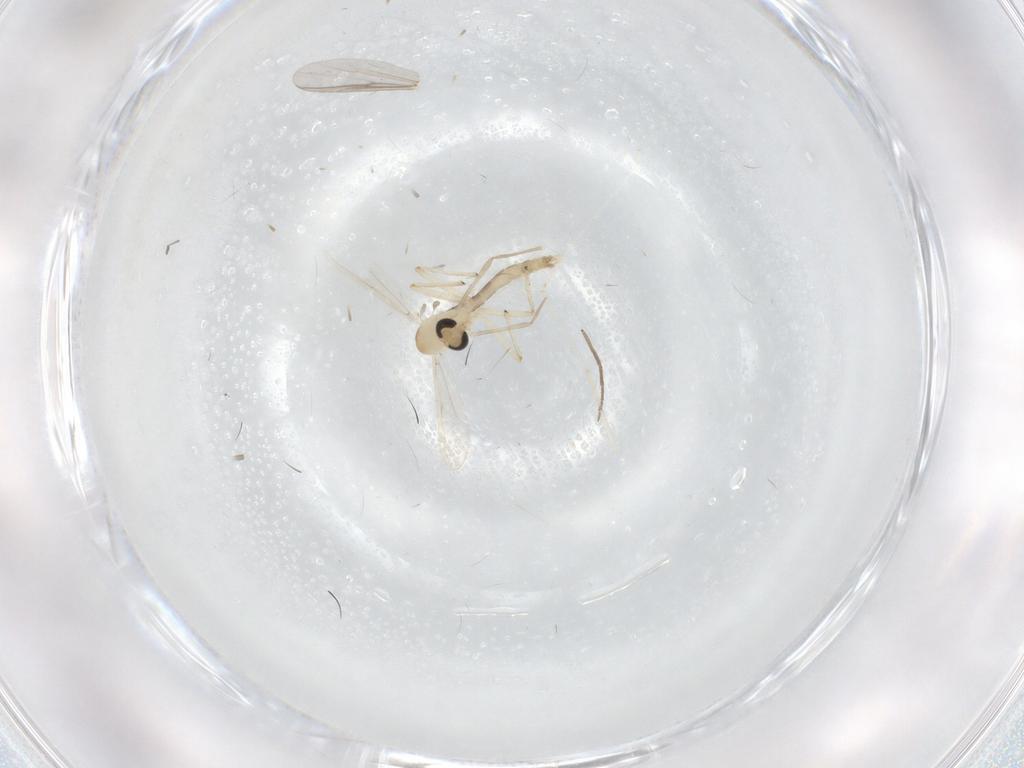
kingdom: Animalia
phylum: Arthropoda
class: Insecta
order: Diptera
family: Chironomidae
